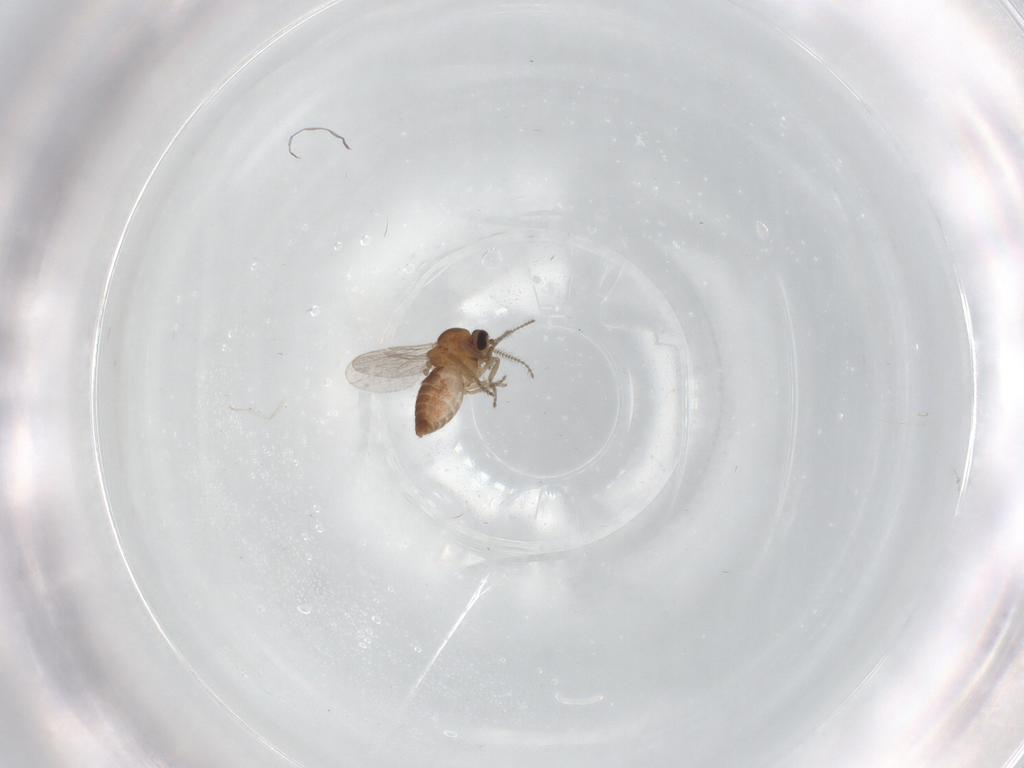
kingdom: Animalia
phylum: Arthropoda
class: Insecta
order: Diptera
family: Ceratopogonidae
